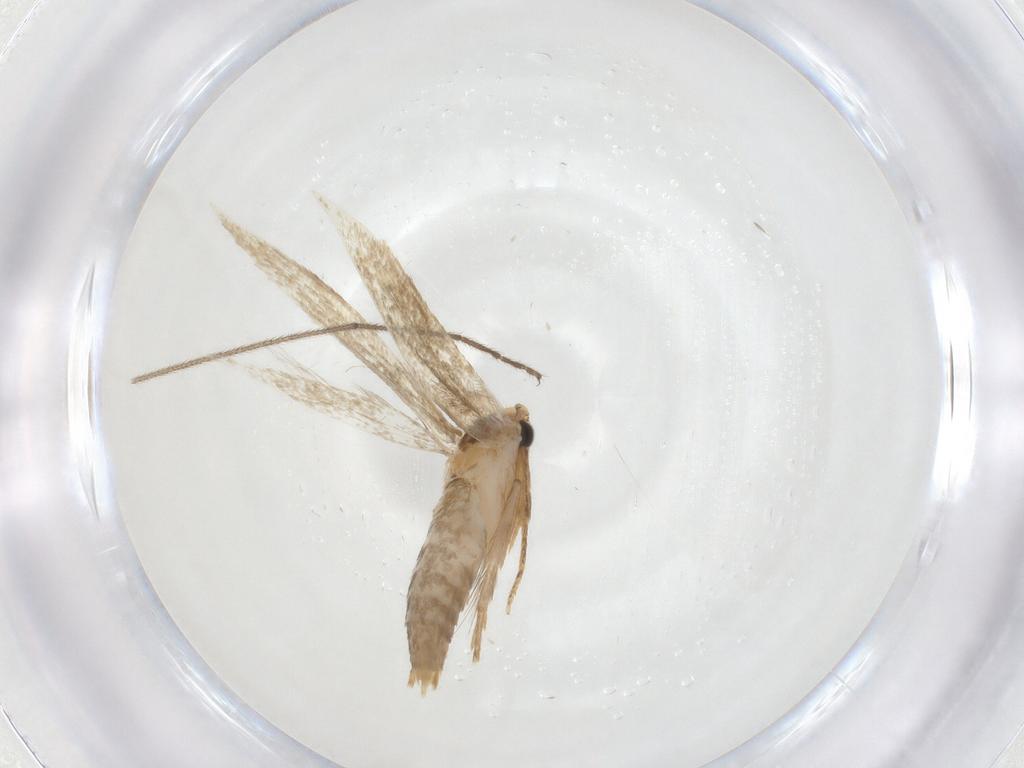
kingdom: Animalia
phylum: Arthropoda
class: Insecta
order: Lepidoptera
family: Tineidae
